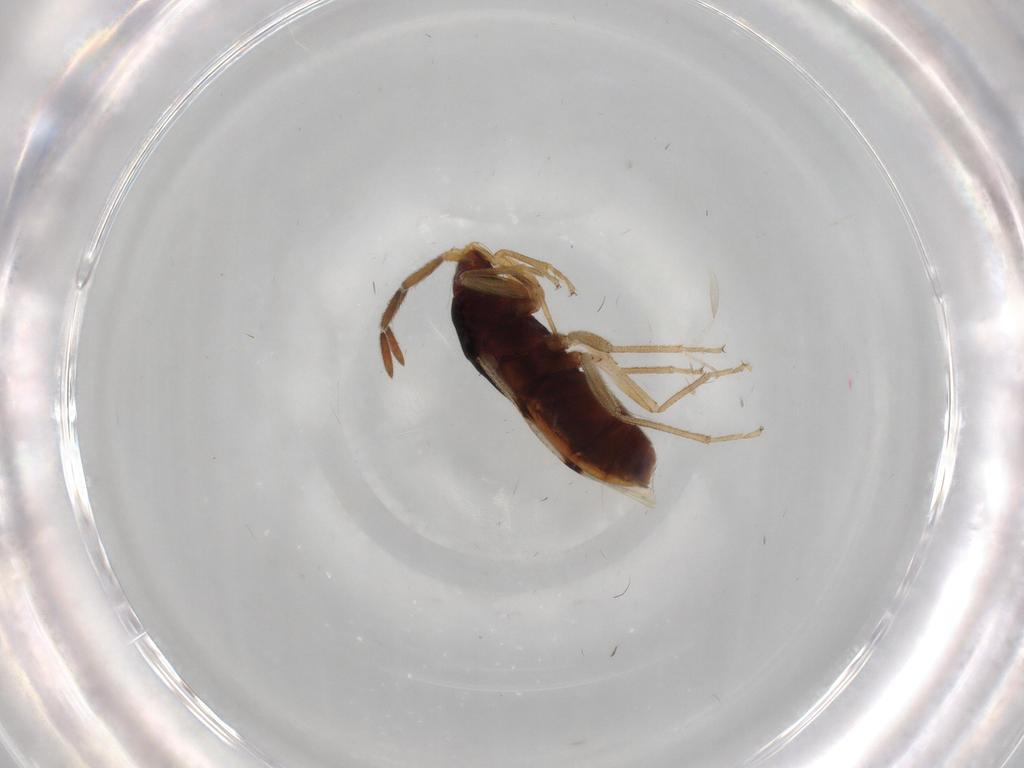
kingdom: Animalia
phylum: Arthropoda
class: Insecta
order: Hemiptera
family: Rhyparochromidae
